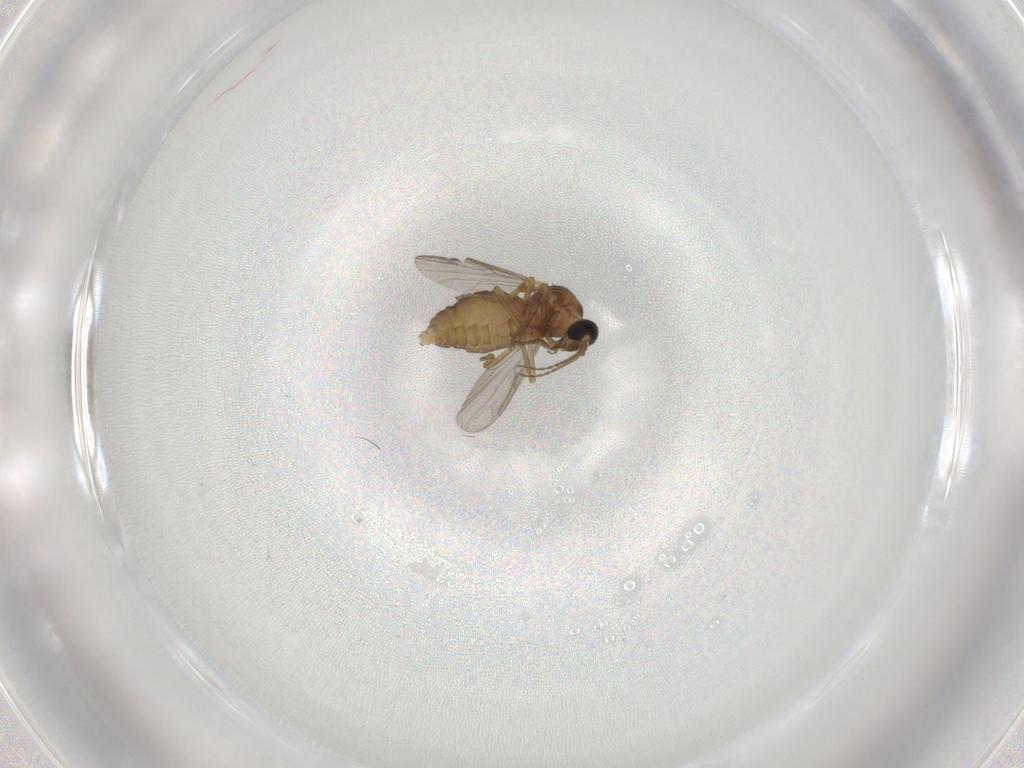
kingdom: Animalia
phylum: Arthropoda
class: Insecta
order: Diptera
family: Ceratopogonidae
